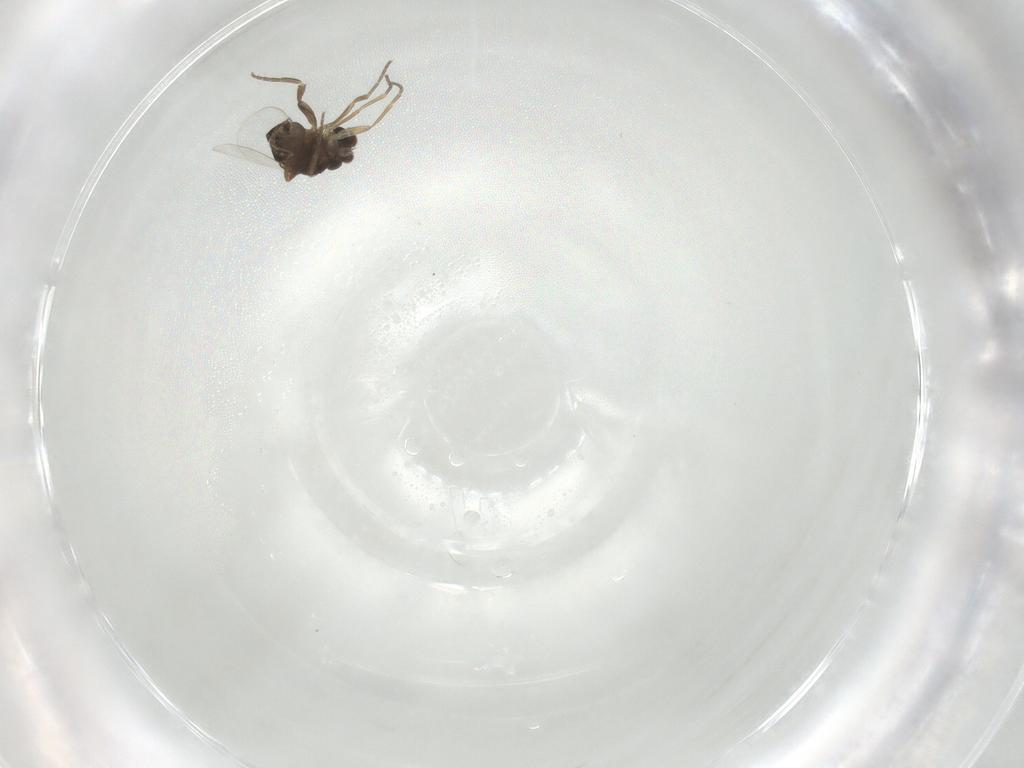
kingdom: Animalia
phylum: Arthropoda
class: Insecta
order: Diptera
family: Phoridae
